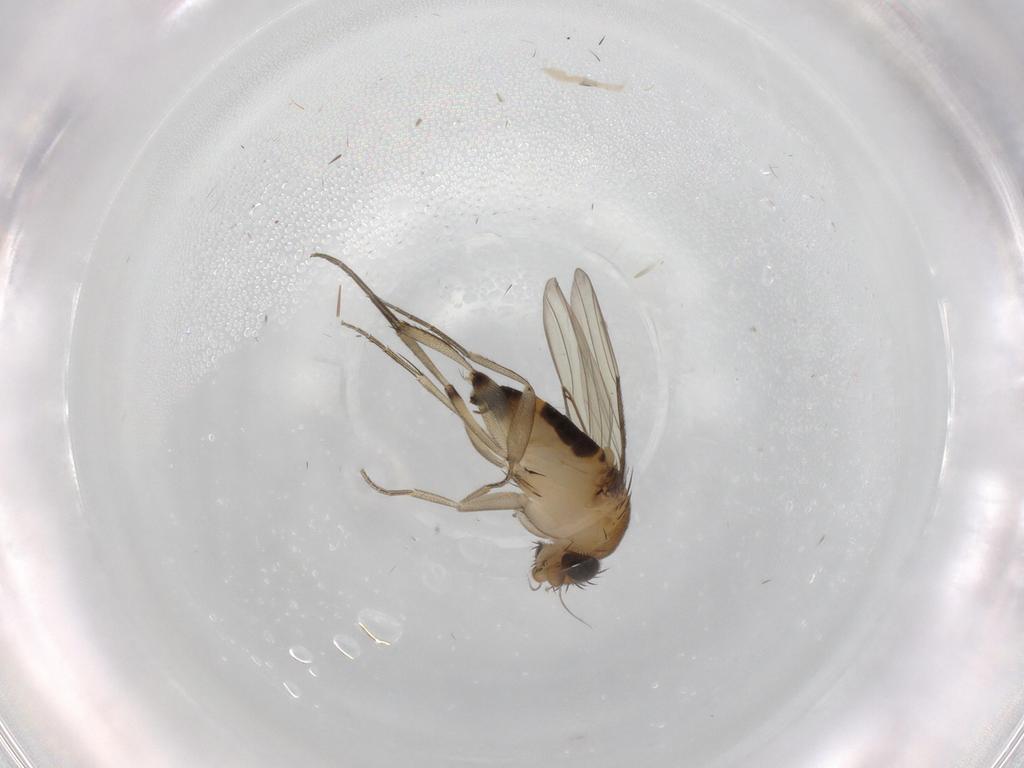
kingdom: Animalia
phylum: Arthropoda
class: Insecta
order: Diptera
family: Phoridae
